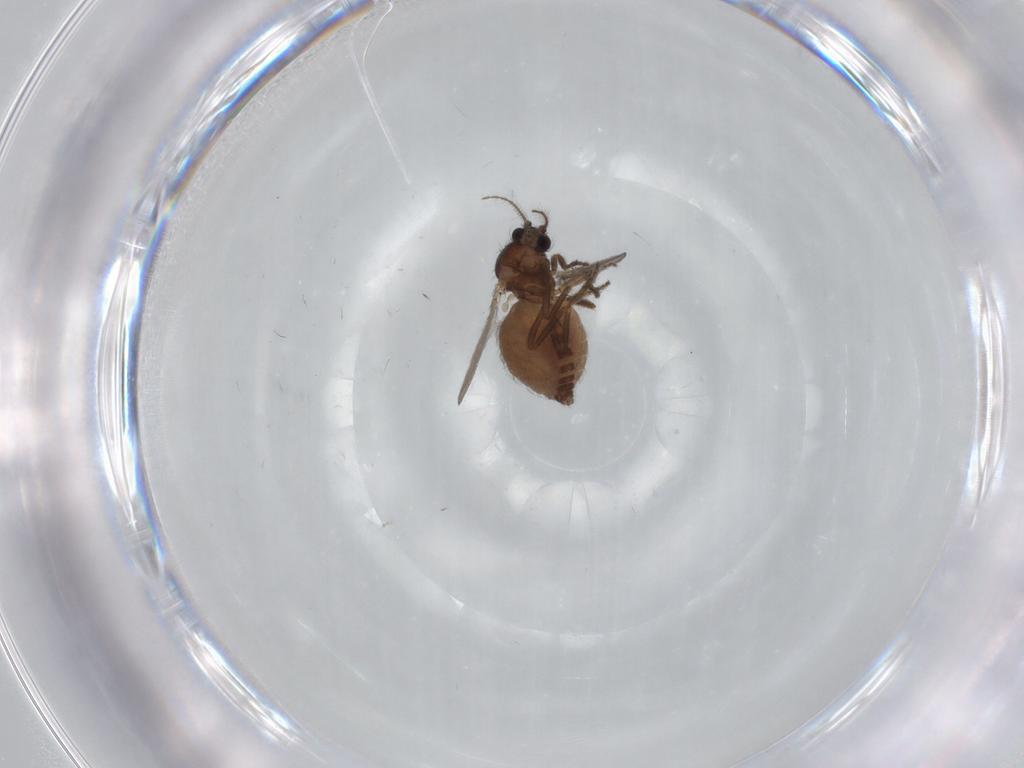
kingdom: Animalia
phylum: Arthropoda
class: Insecta
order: Diptera
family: Ceratopogonidae
